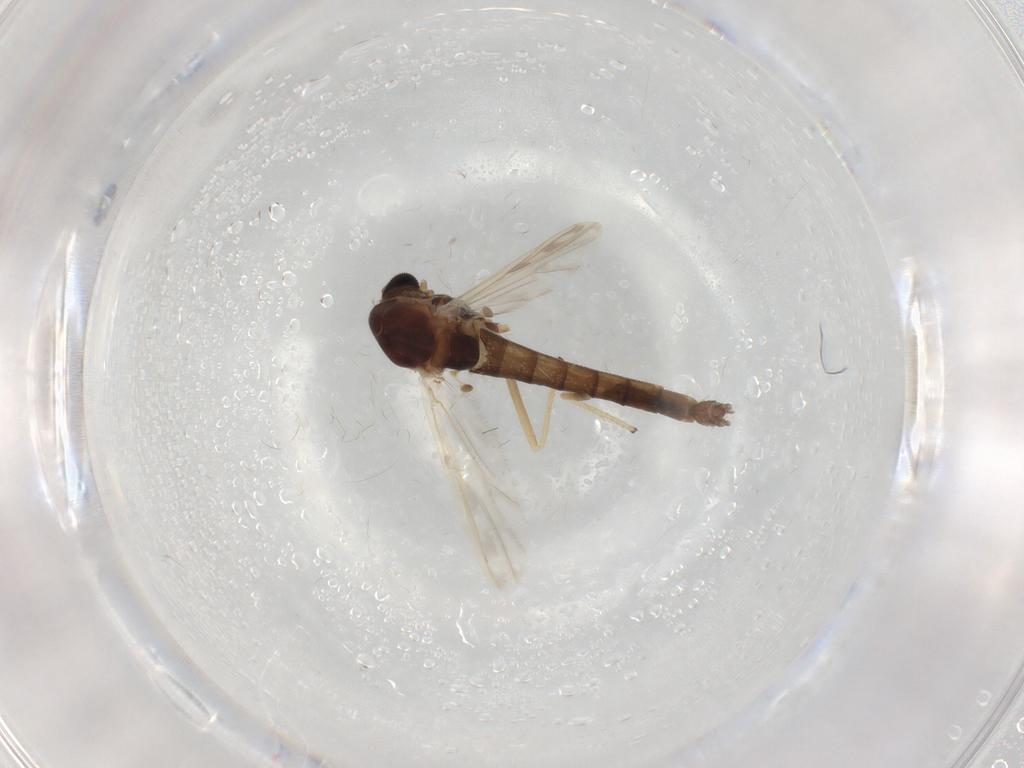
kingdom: Animalia
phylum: Arthropoda
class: Insecta
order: Diptera
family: Chironomidae
